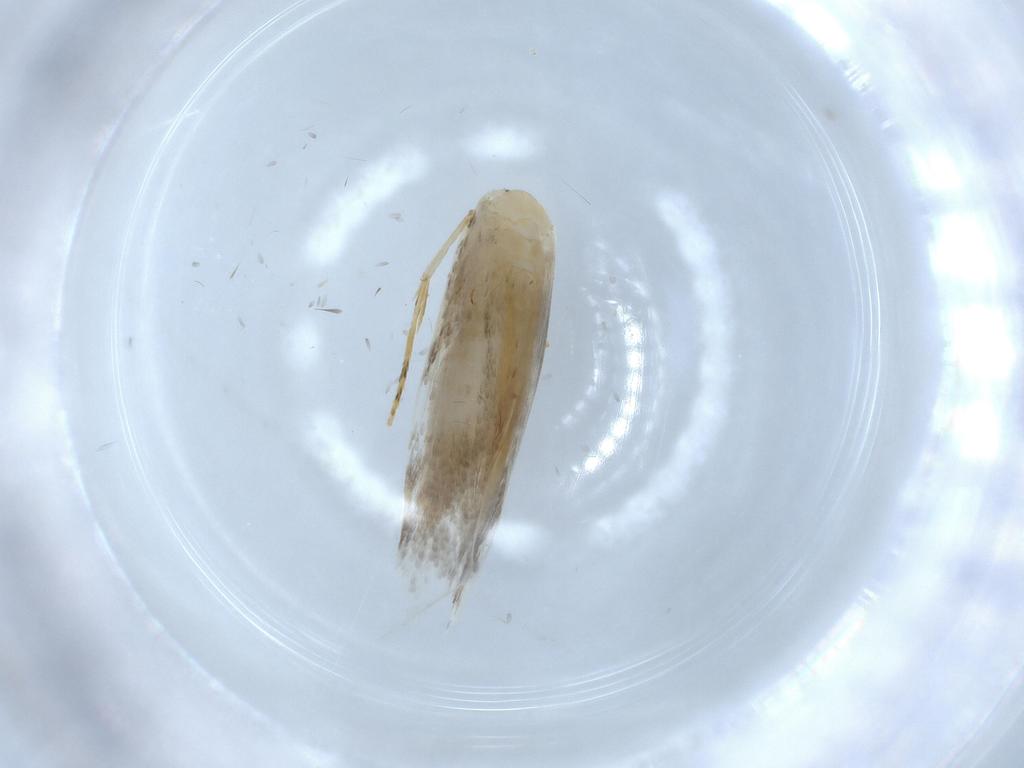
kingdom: Animalia
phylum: Arthropoda
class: Insecta
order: Lepidoptera
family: Tineidae
